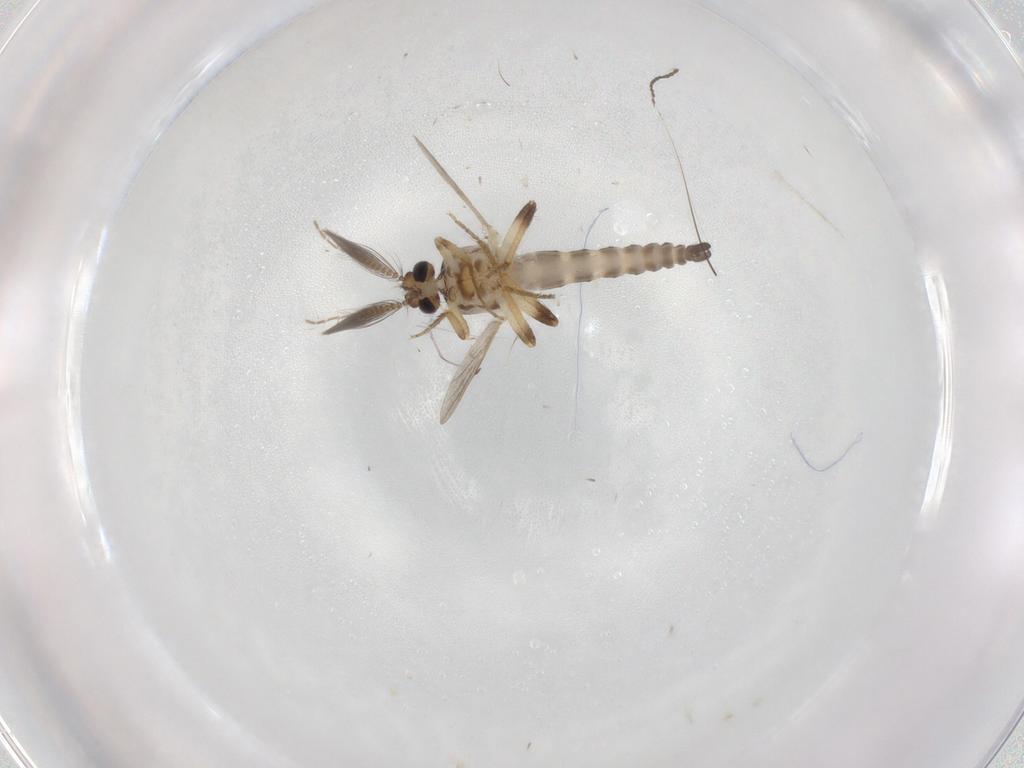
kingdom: Animalia
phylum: Arthropoda
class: Insecta
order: Diptera
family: Ceratopogonidae
